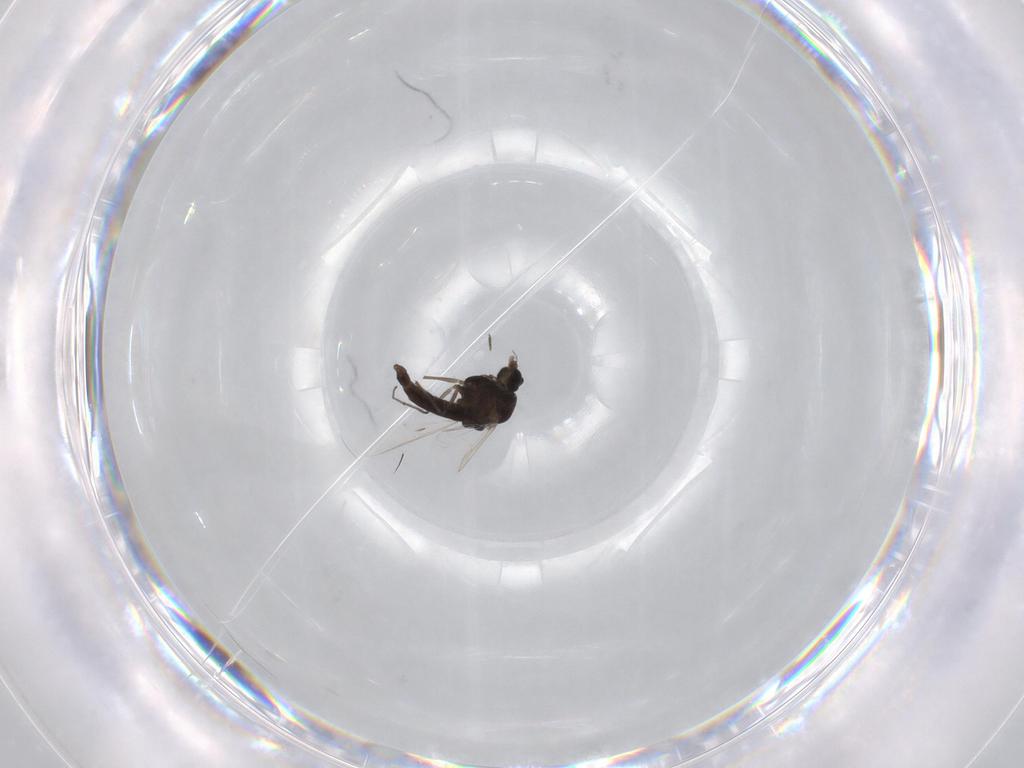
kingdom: Animalia
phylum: Arthropoda
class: Insecta
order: Diptera
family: Chironomidae
